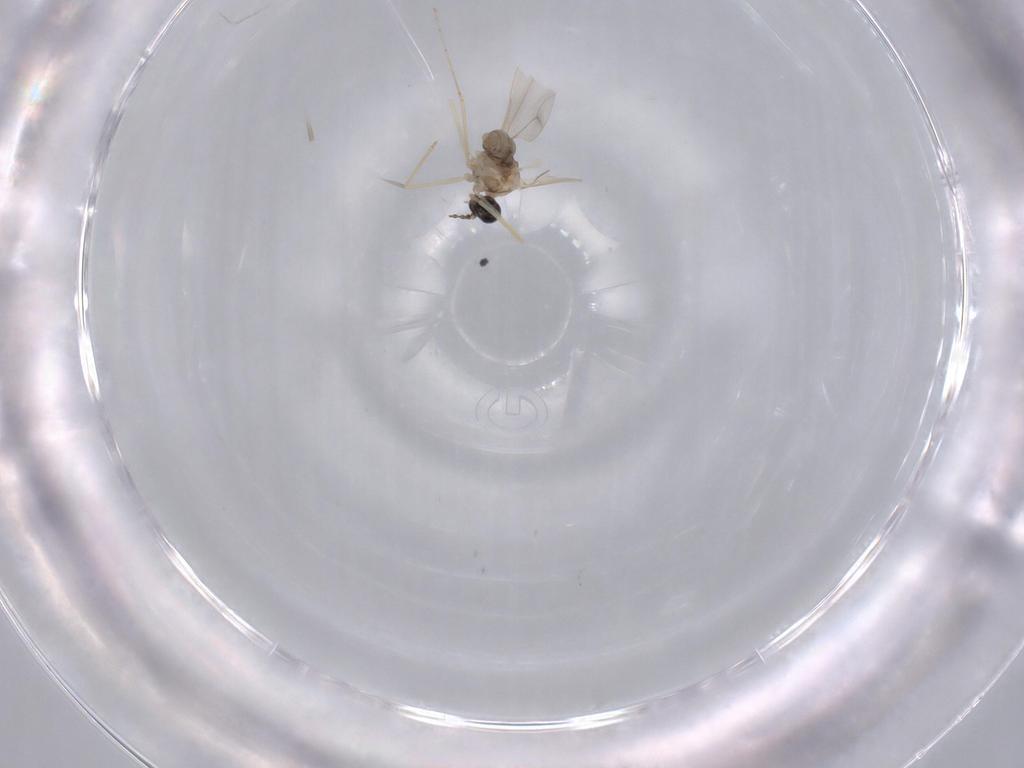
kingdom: Animalia
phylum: Arthropoda
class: Insecta
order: Diptera
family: Cecidomyiidae
